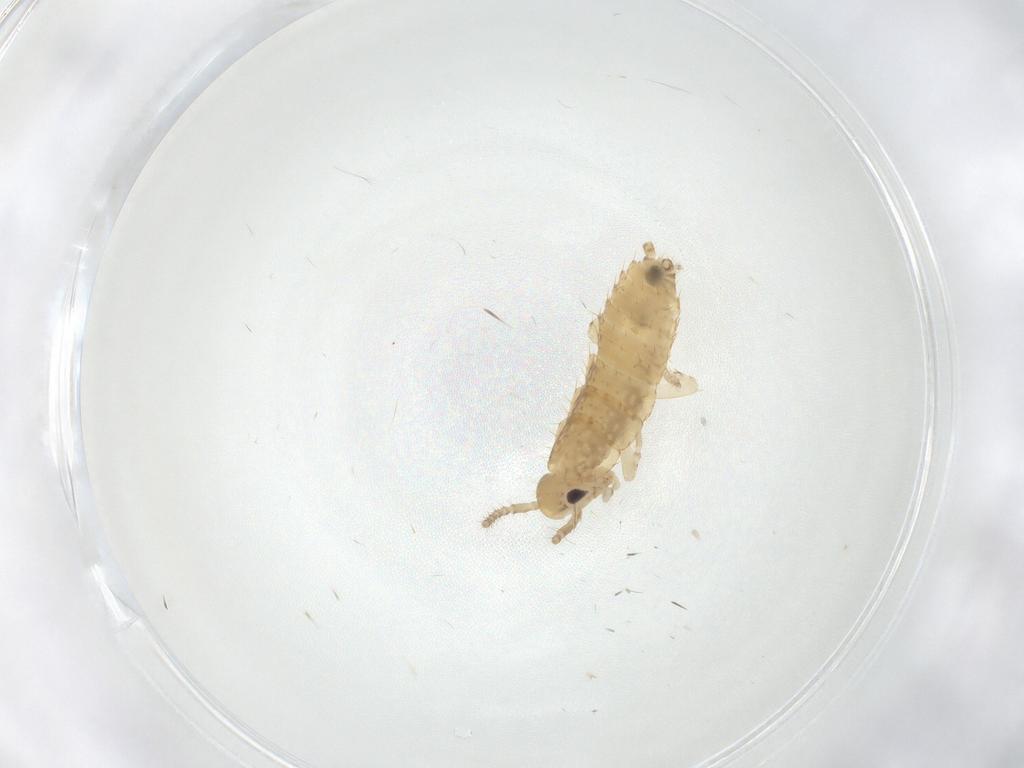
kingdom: Animalia
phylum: Arthropoda
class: Insecta
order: Blattodea
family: Ectobiidae
